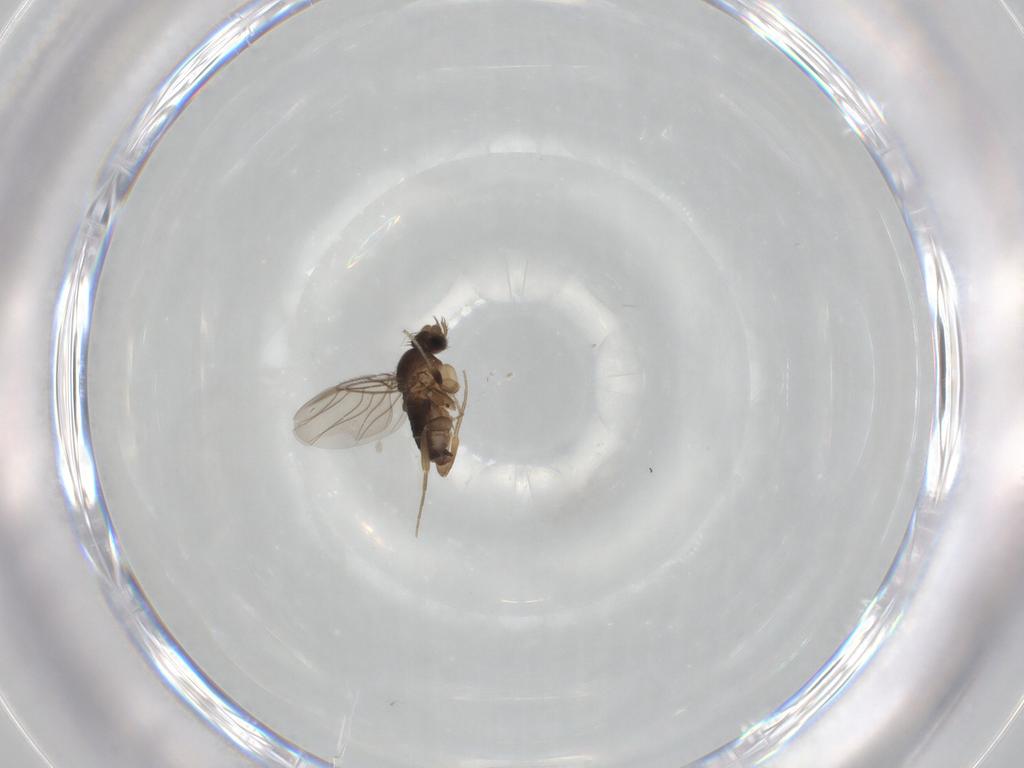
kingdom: Animalia
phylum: Arthropoda
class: Insecta
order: Diptera
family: Phoridae
